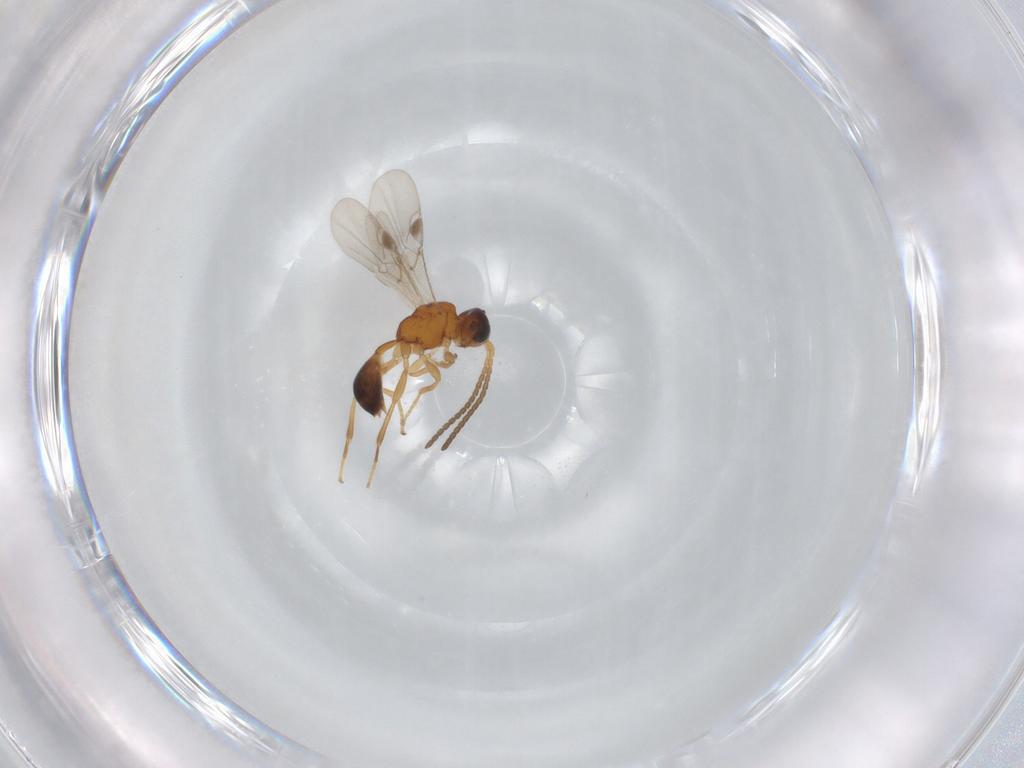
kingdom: Animalia
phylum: Arthropoda
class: Insecta
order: Hymenoptera
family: Braconidae
